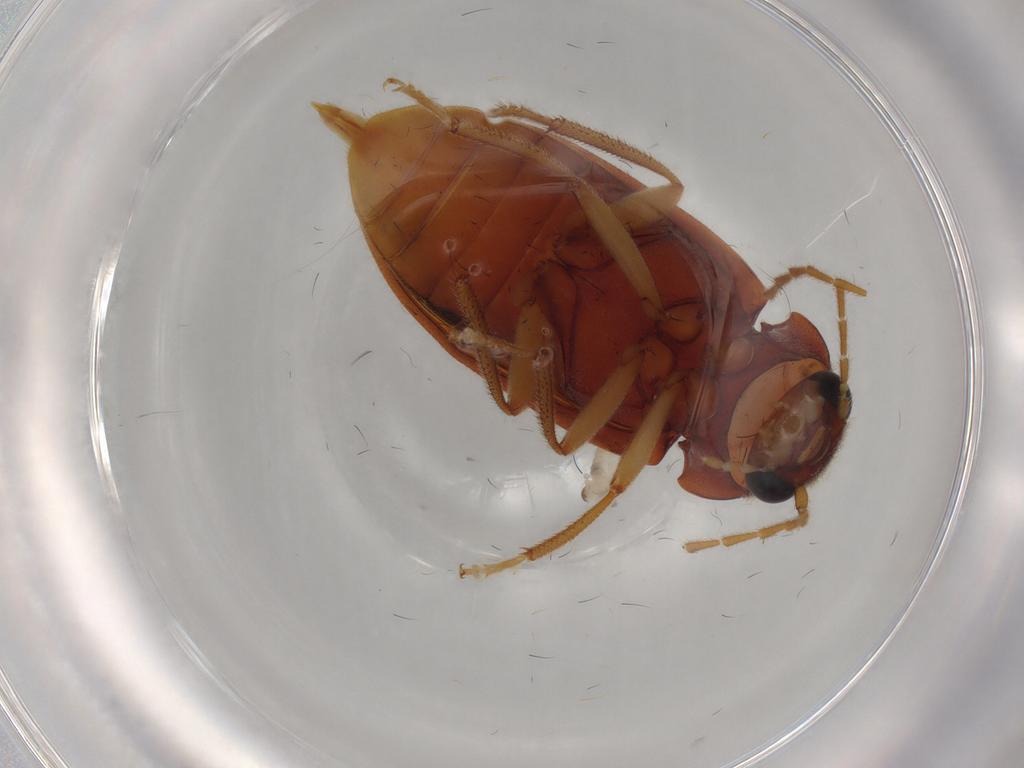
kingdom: Animalia
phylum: Arthropoda
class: Insecta
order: Coleoptera
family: Ptilodactylidae
